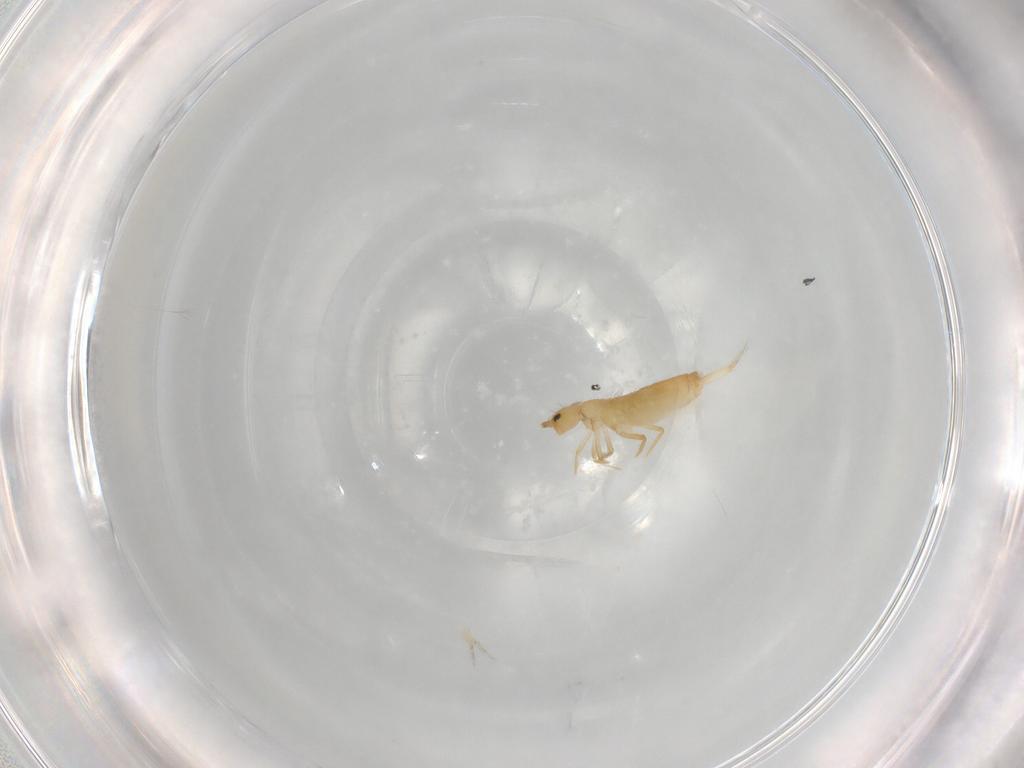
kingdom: Animalia
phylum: Arthropoda
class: Collembola
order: Entomobryomorpha
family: Entomobryidae
